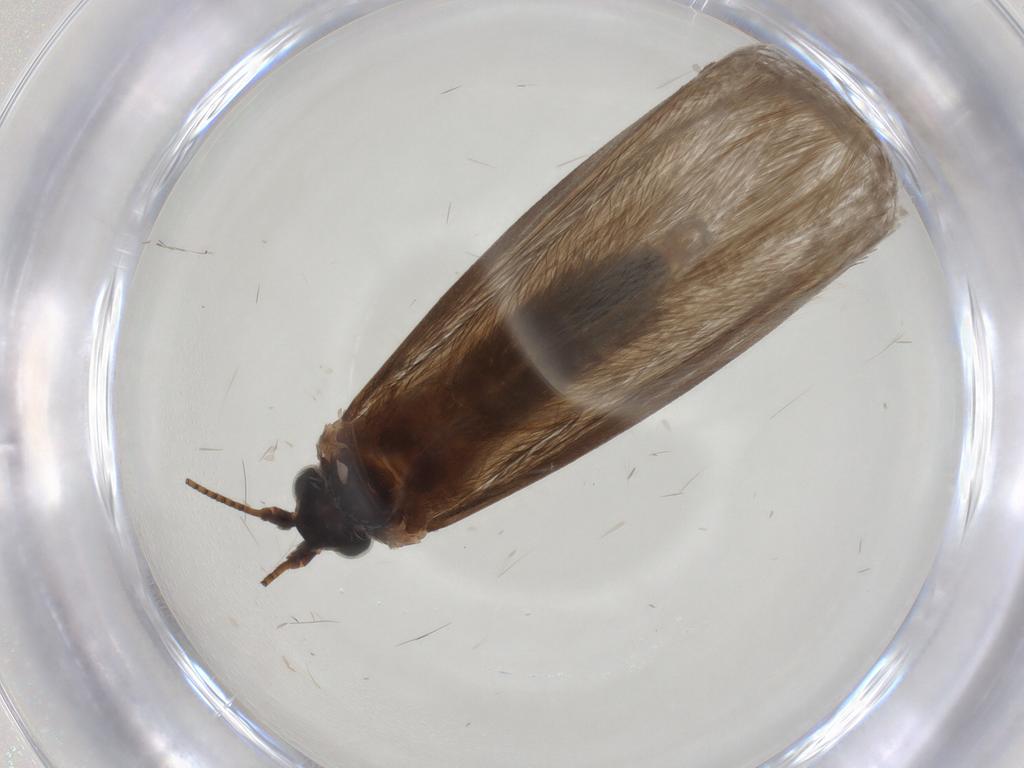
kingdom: Animalia
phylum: Arthropoda
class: Insecta
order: Lepidoptera
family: Adelidae
